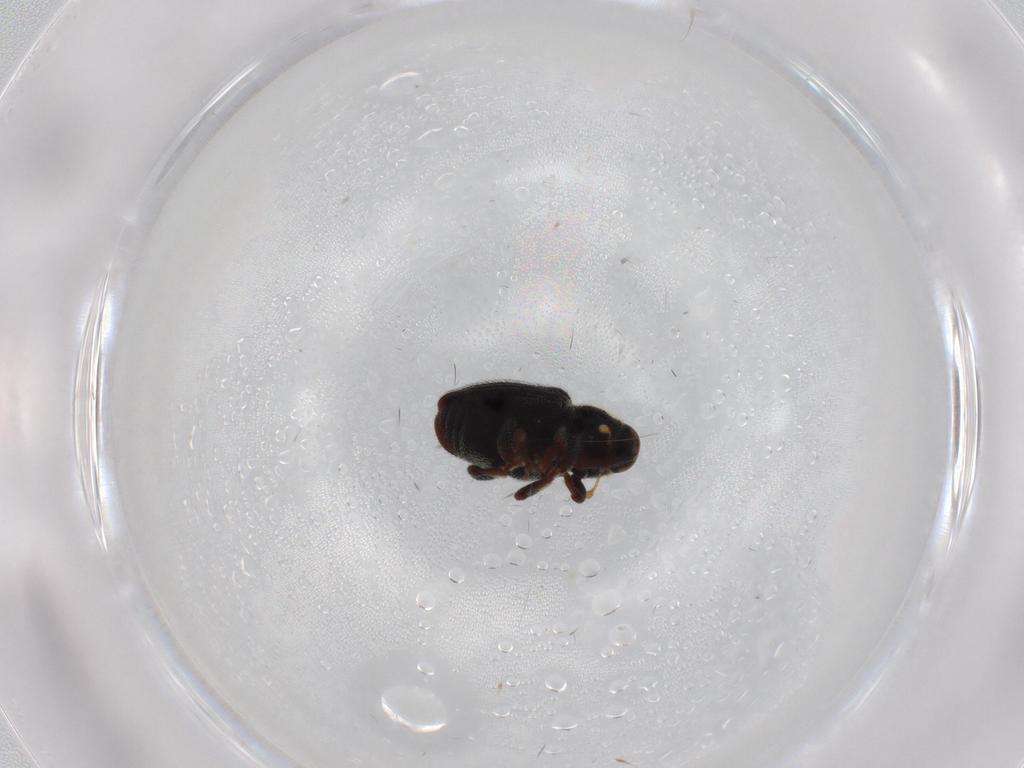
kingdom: Animalia
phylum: Arthropoda
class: Insecta
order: Coleoptera
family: Curculionidae
